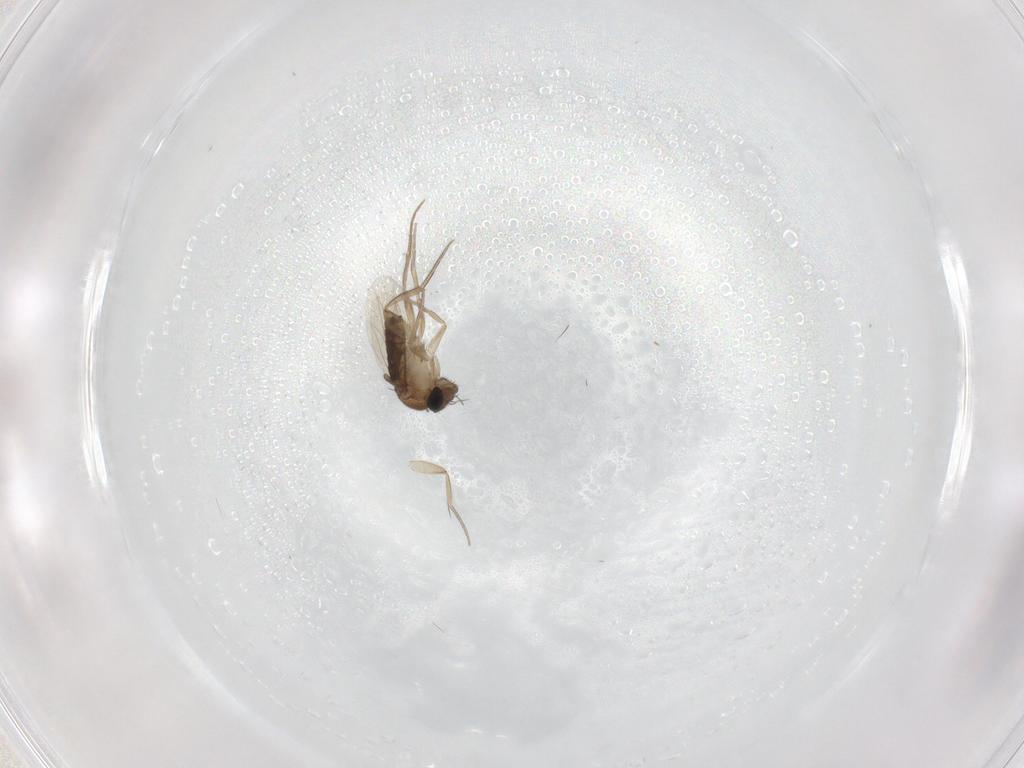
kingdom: Animalia
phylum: Arthropoda
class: Insecta
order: Diptera
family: Phoridae
